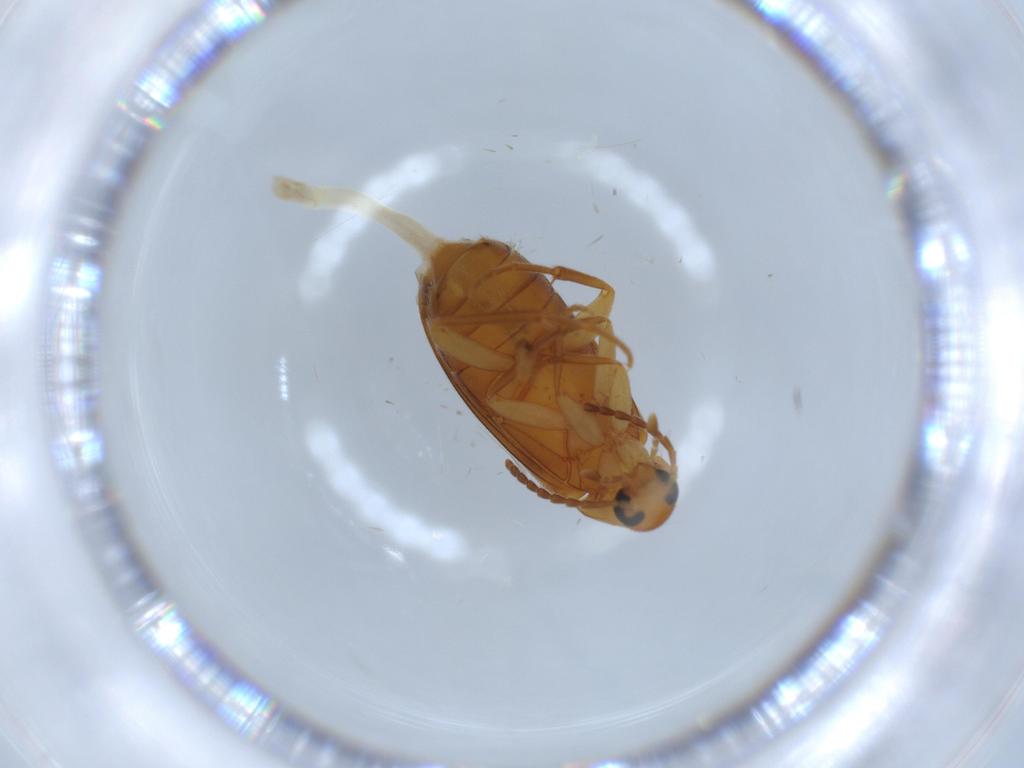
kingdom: Animalia
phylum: Arthropoda
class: Insecta
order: Coleoptera
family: Scraptiidae
